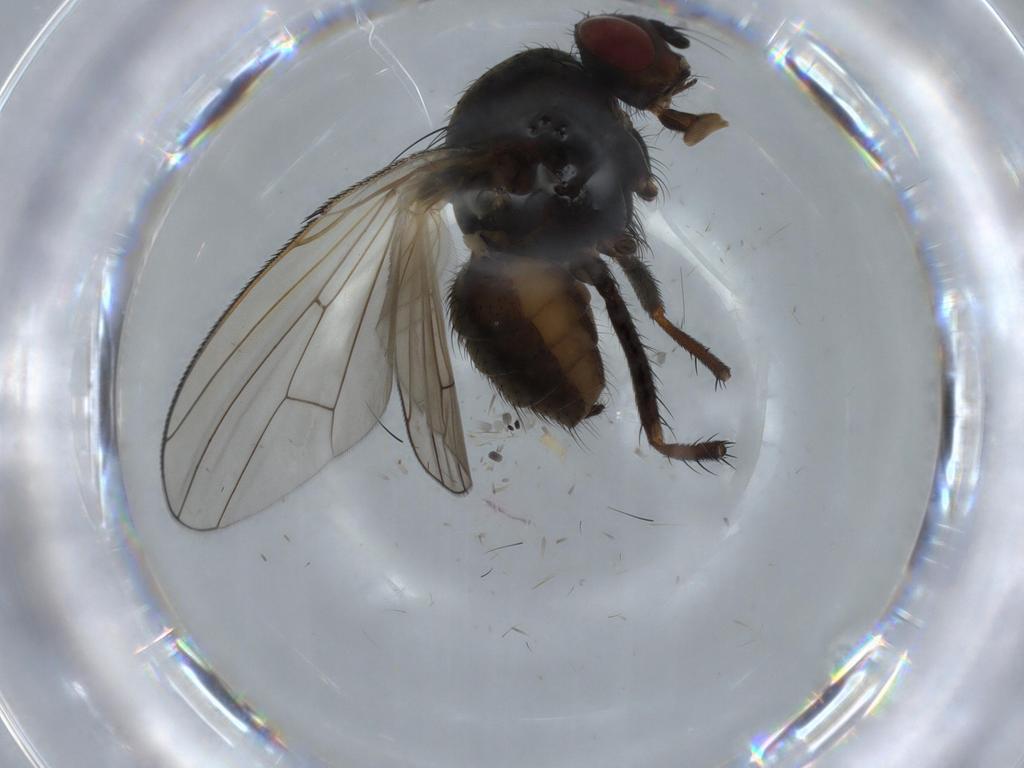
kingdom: Animalia
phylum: Arthropoda
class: Insecta
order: Diptera
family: Anthomyiidae
